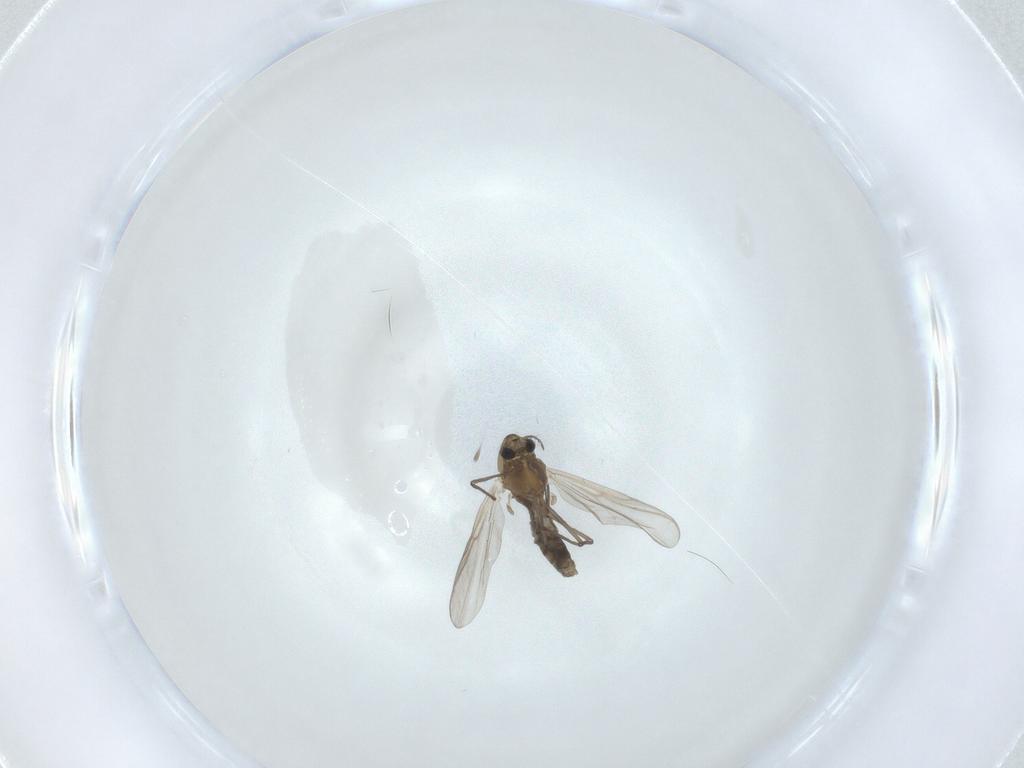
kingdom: Animalia
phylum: Arthropoda
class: Insecta
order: Diptera
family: Chironomidae
